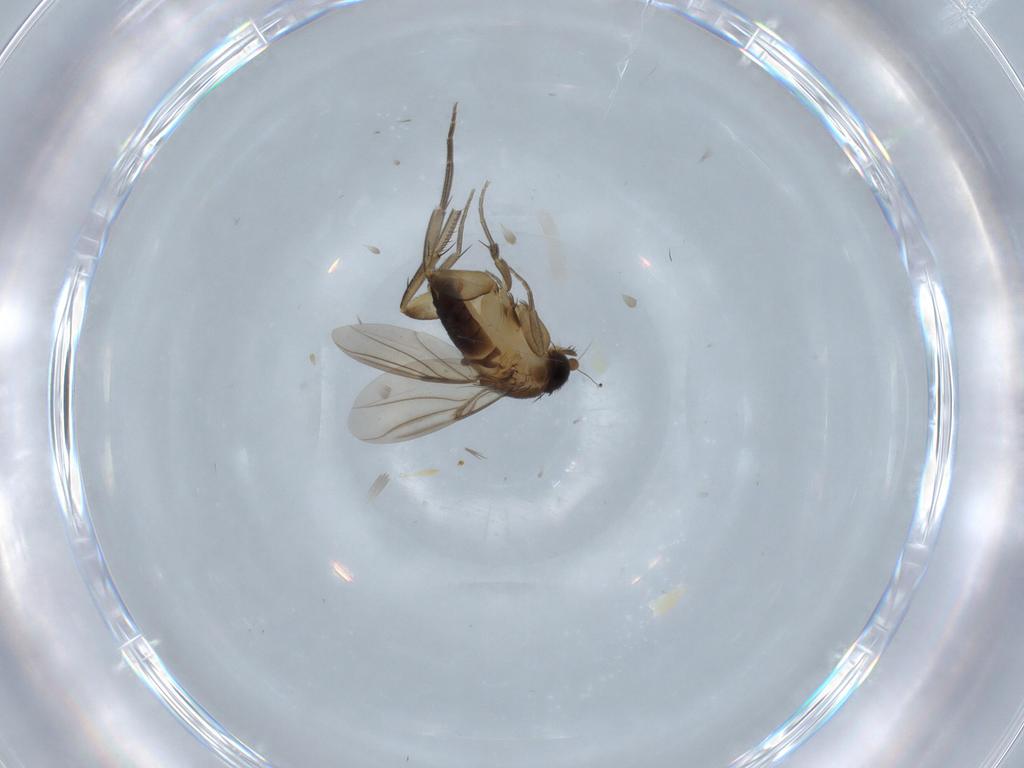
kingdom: Animalia
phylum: Arthropoda
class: Insecta
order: Diptera
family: Phoridae
